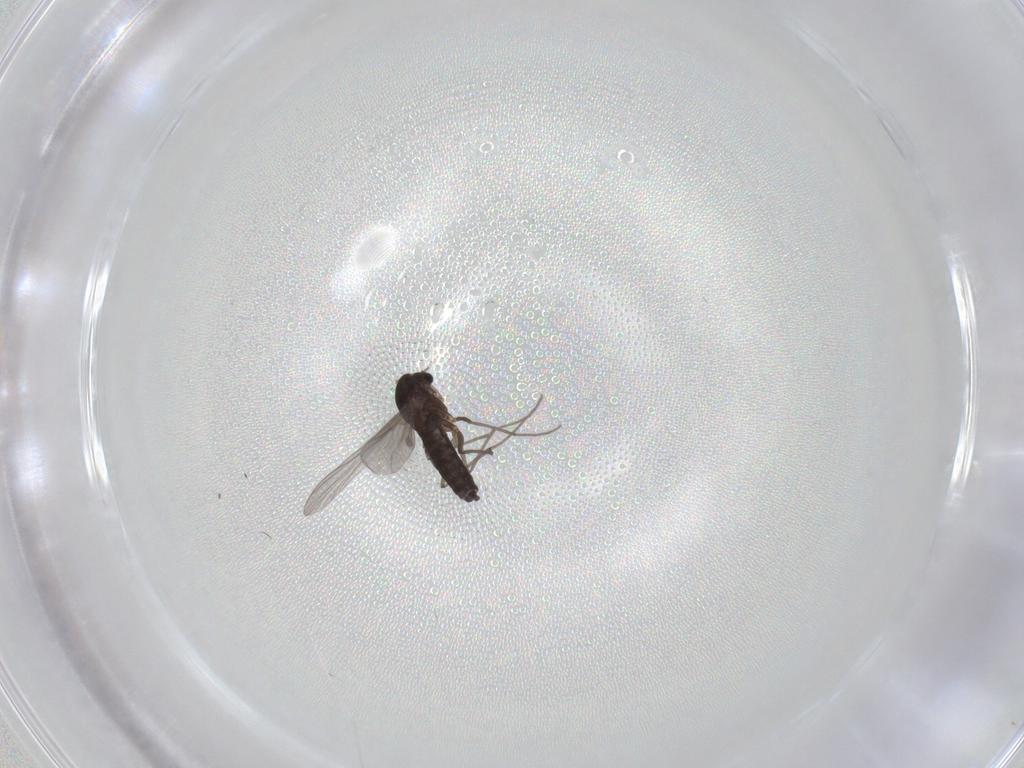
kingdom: Animalia
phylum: Arthropoda
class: Insecta
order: Diptera
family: Chironomidae
